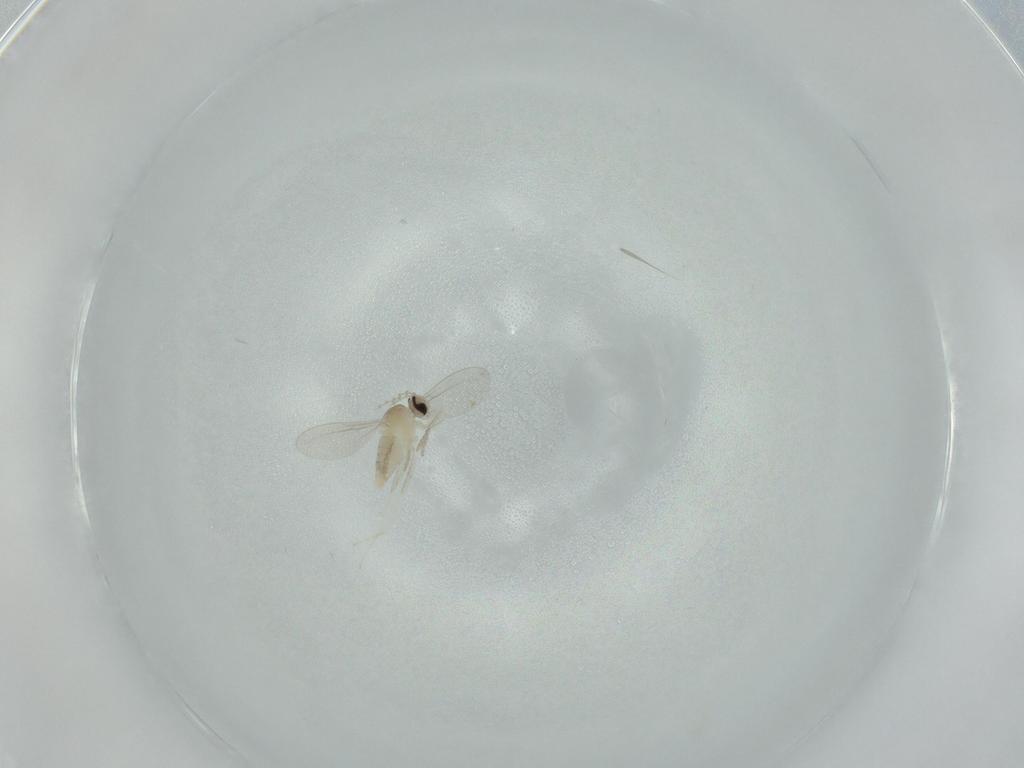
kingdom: Animalia
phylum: Arthropoda
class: Insecta
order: Diptera
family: Cecidomyiidae
